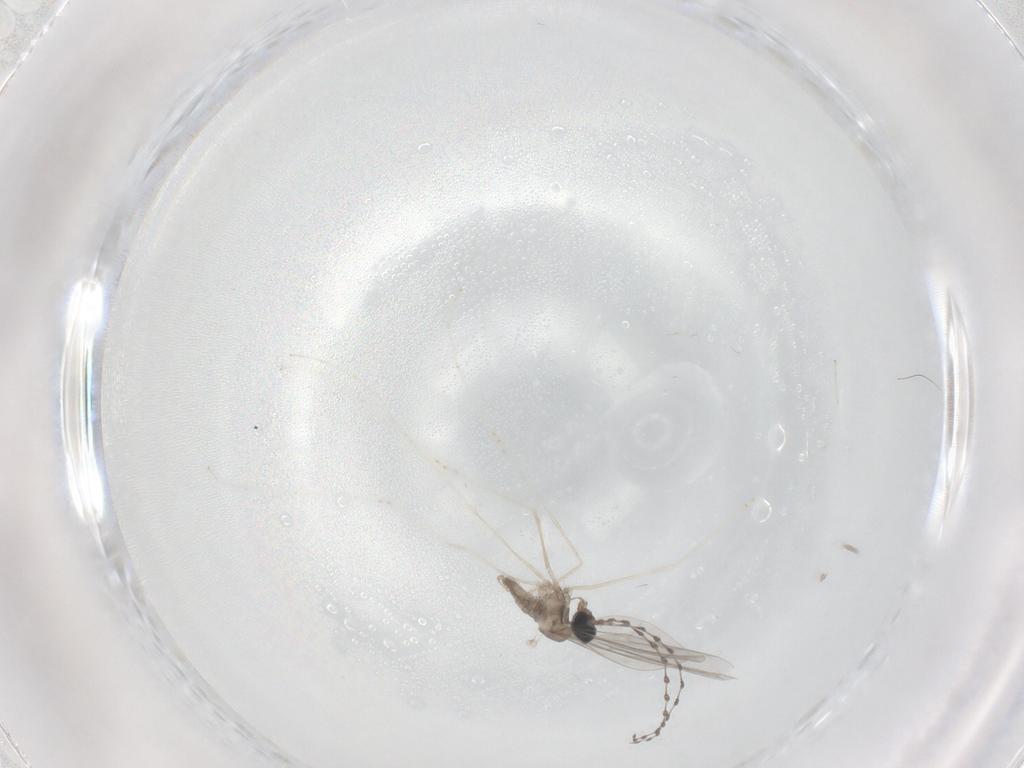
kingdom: Animalia
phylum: Arthropoda
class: Insecta
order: Diptera
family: Cecidomyiidae
